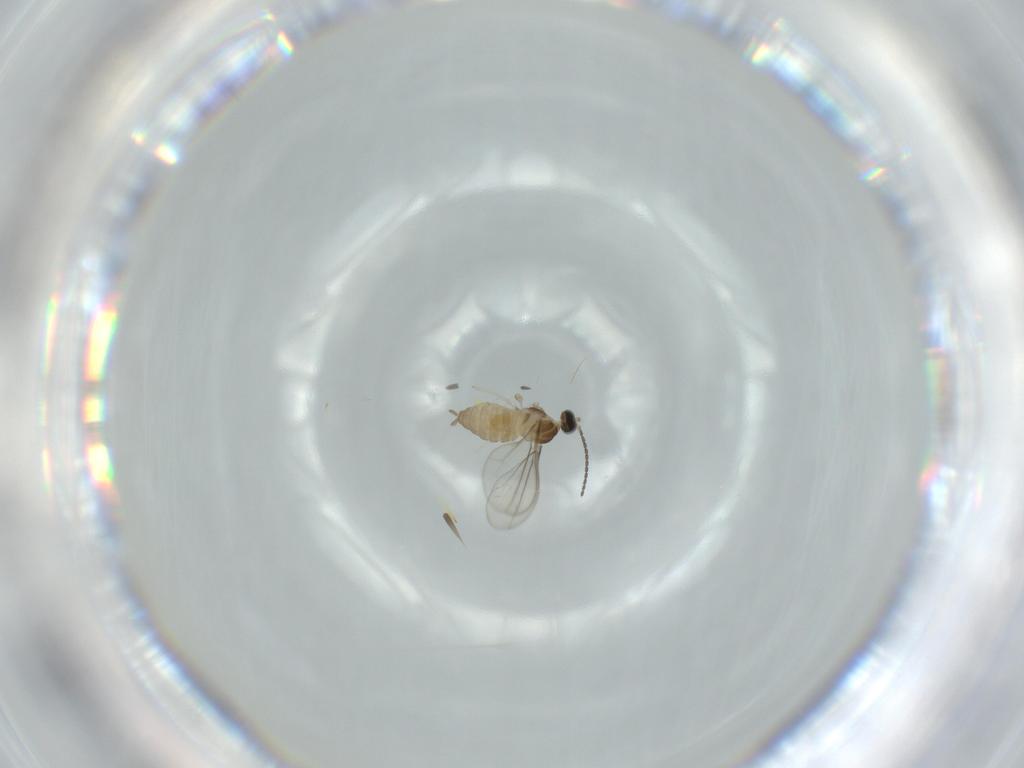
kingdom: Animalia
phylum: Arthropoda
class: Insecta
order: Diptera
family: Cecidomyiidae
